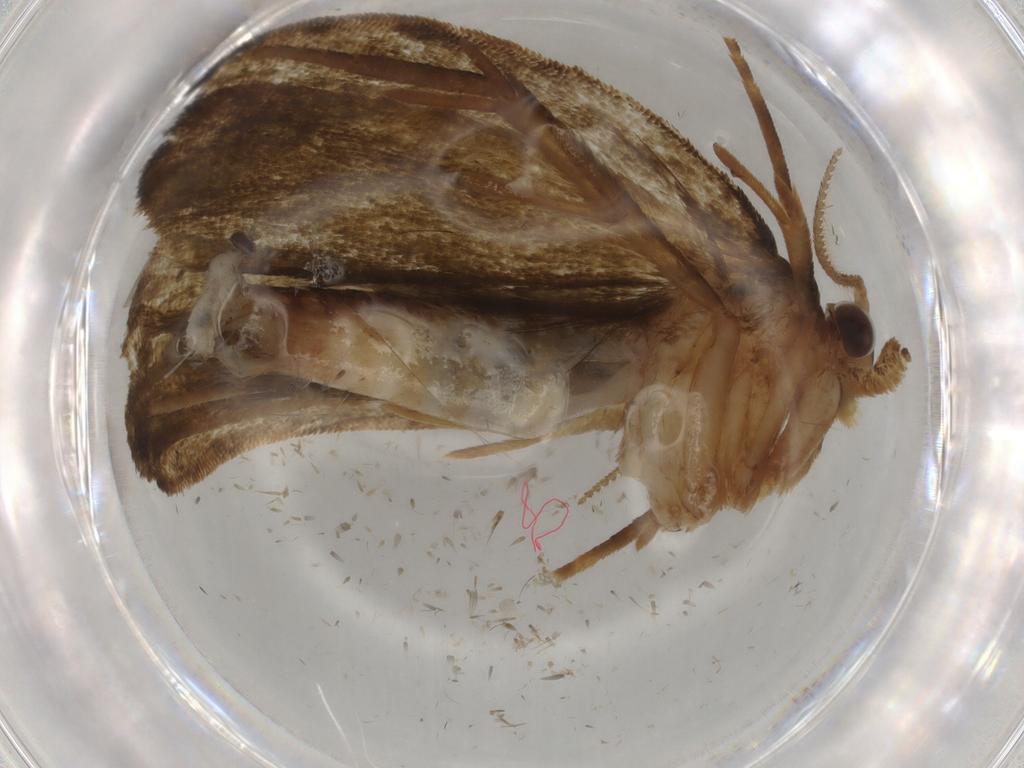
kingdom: Animalia
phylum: Arthropoda
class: Insecta
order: Lepidoptera
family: Geometridae
